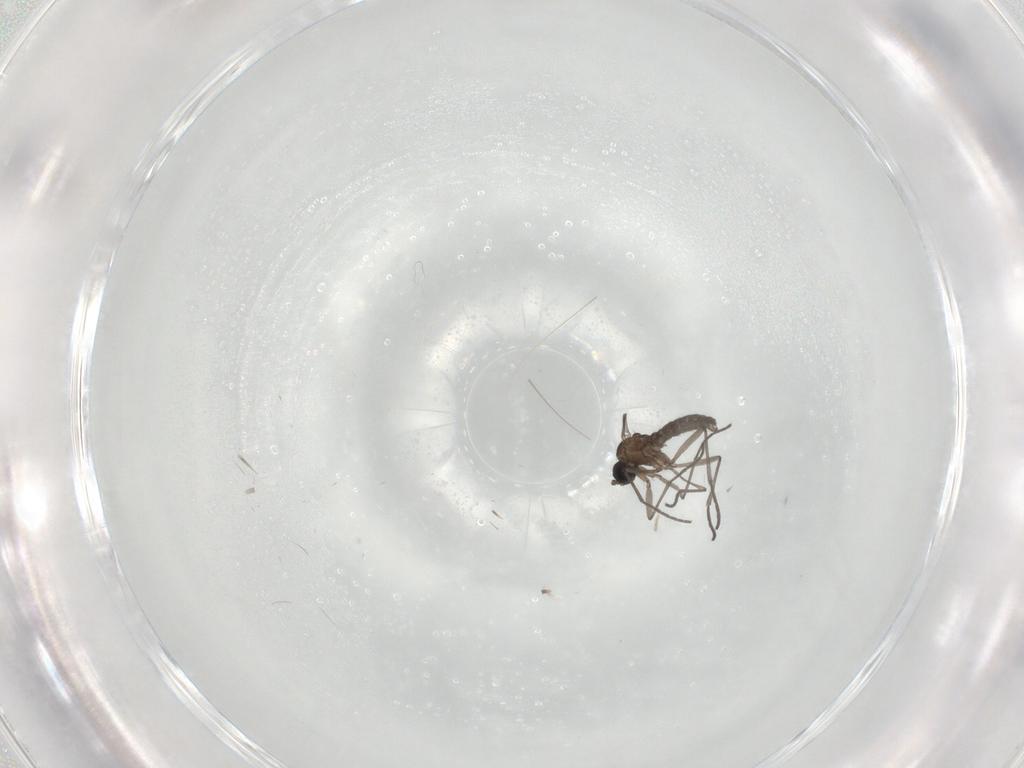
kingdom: Animalia
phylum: Arthropoda
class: Insecta
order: Diptera
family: Sciaridae
